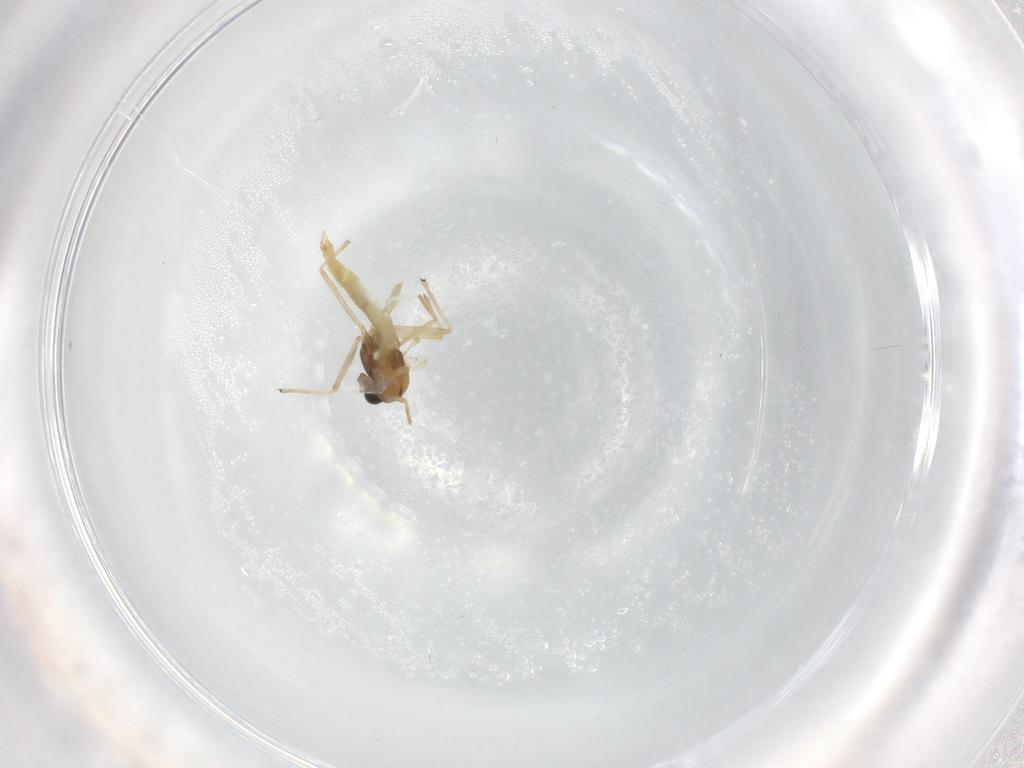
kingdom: Animalia
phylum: Arthropoda
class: Insecta
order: Diptera
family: Chironomidae
